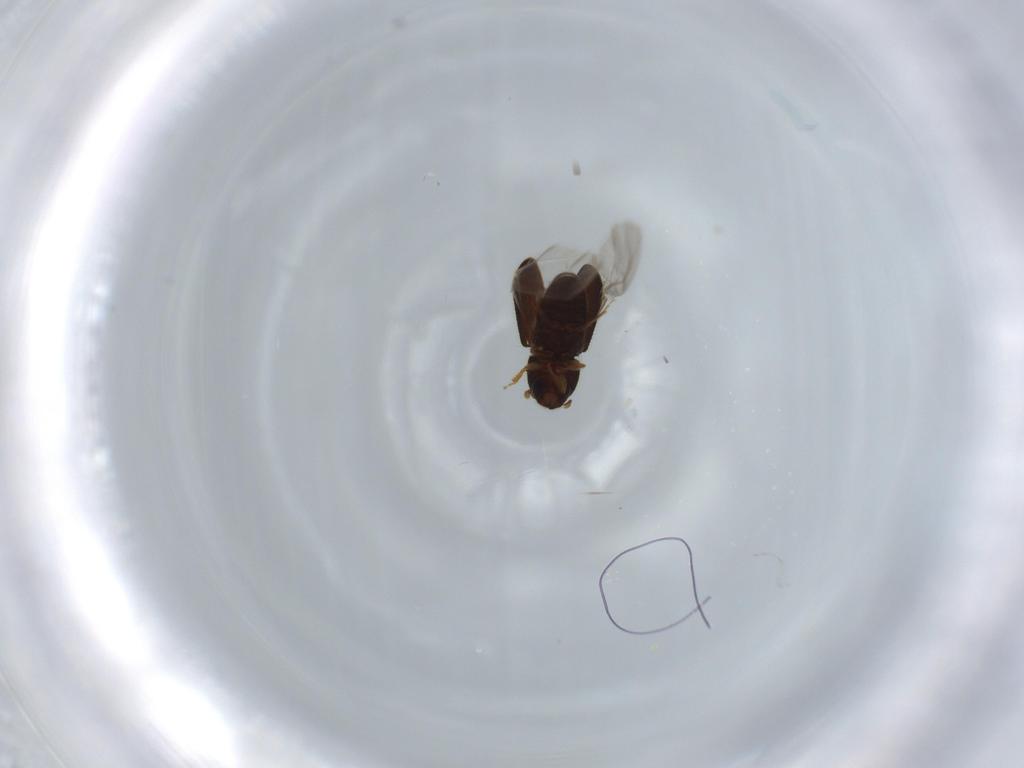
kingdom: Animalia
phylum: Arthropoda
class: Insecta
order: Coleoptera
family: Curculionidae
